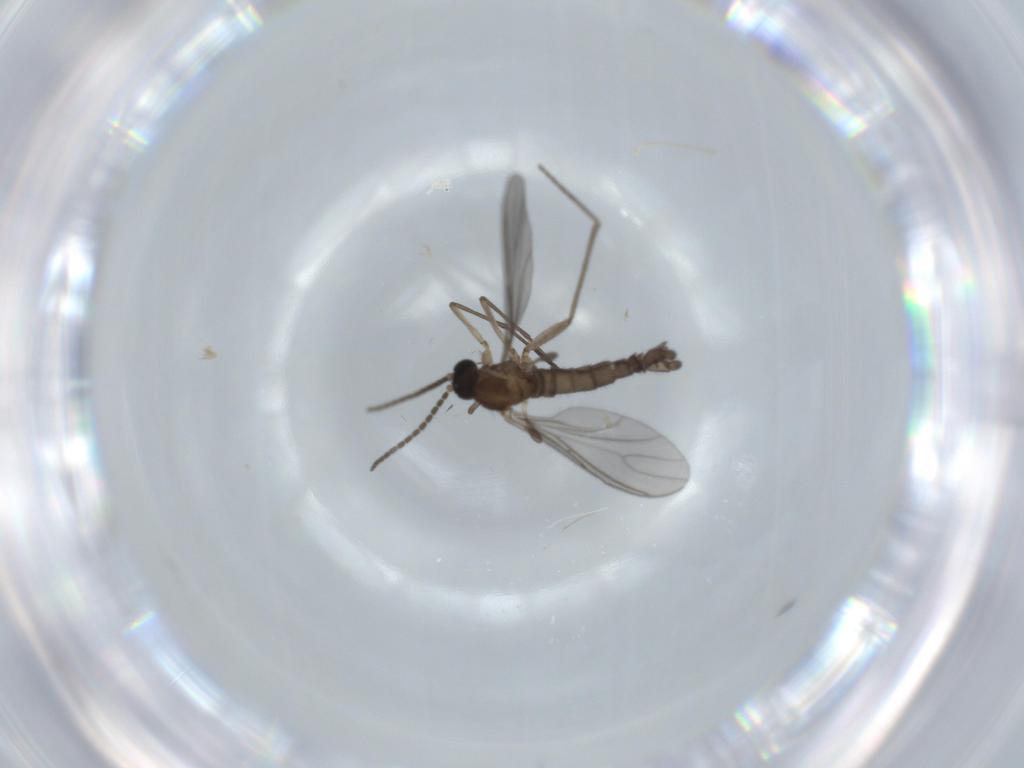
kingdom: Animalia
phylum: Arthropoda
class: Insecta
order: Diptera
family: Sciaridae
